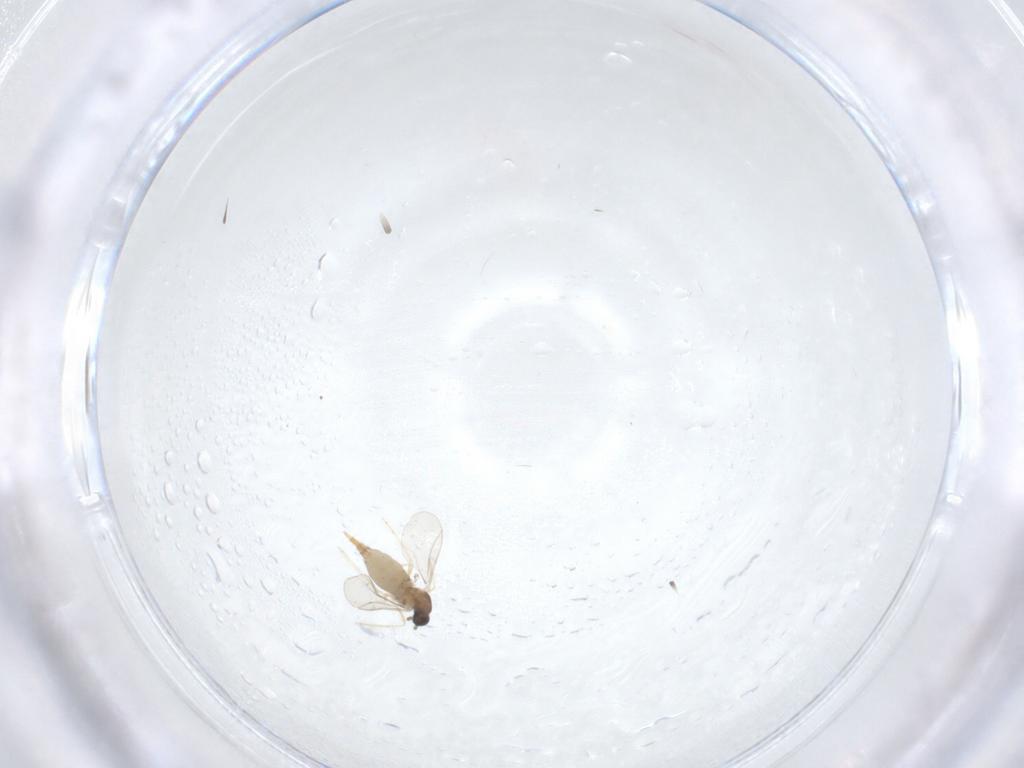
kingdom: Animalia
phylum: Arthropoda
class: Insecta
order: Diptera
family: Cecidomyiidae
